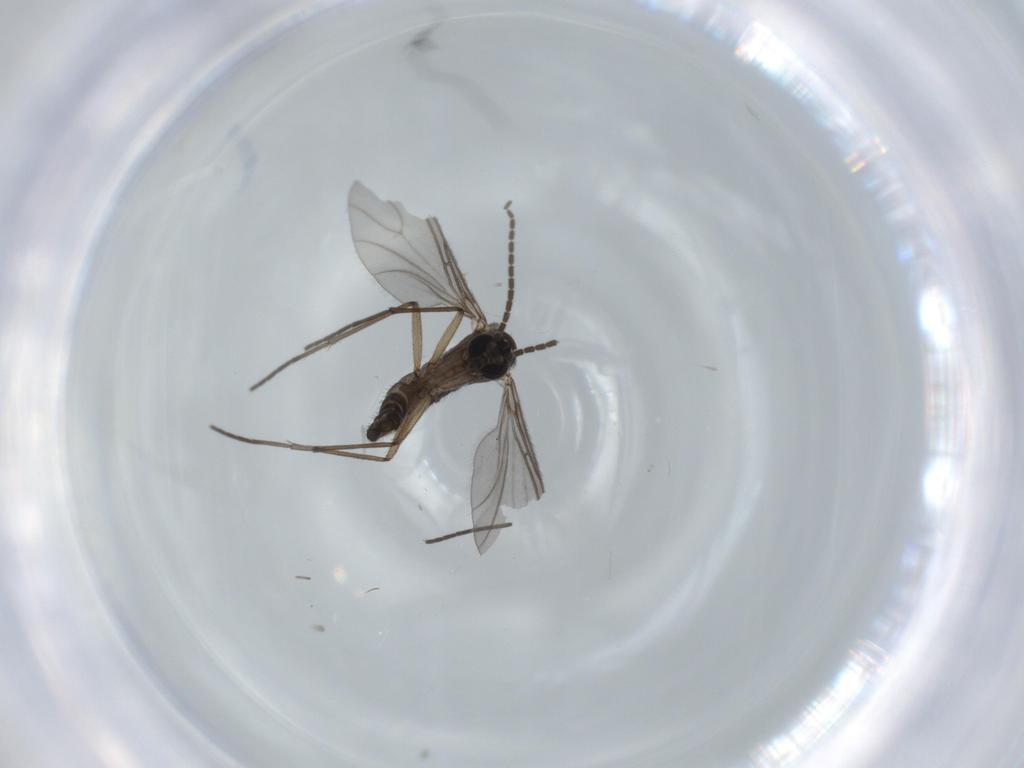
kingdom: Animalia
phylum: Arthropoda
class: Insecta
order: Diptera
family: Sciaridae
